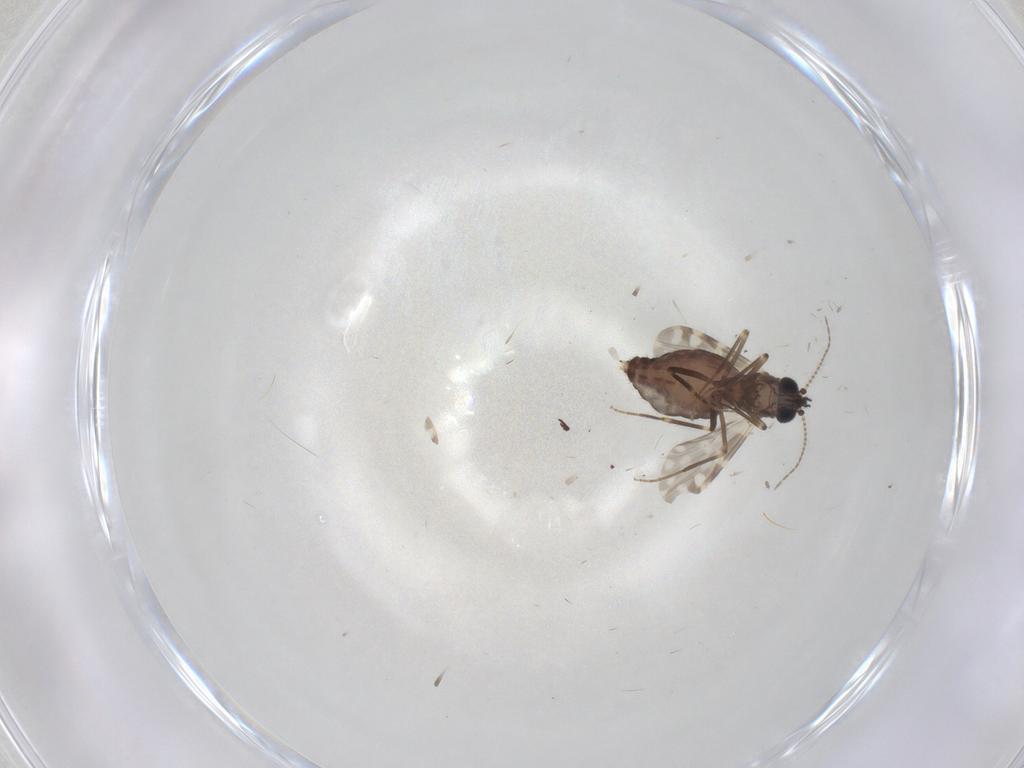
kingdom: Animalia
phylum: Arthropoda
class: Insecta
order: Diptera
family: Ceratopogonidae
